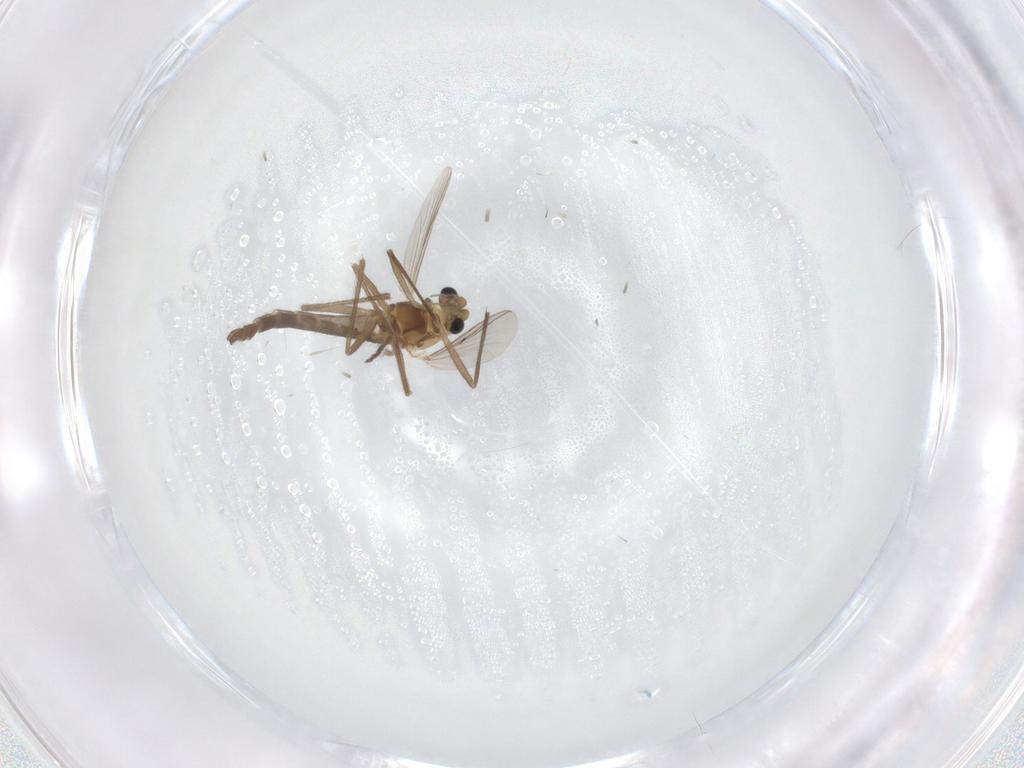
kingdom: Animalia
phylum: Arthropoda
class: Insecta
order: Diptera
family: Chironomidae
